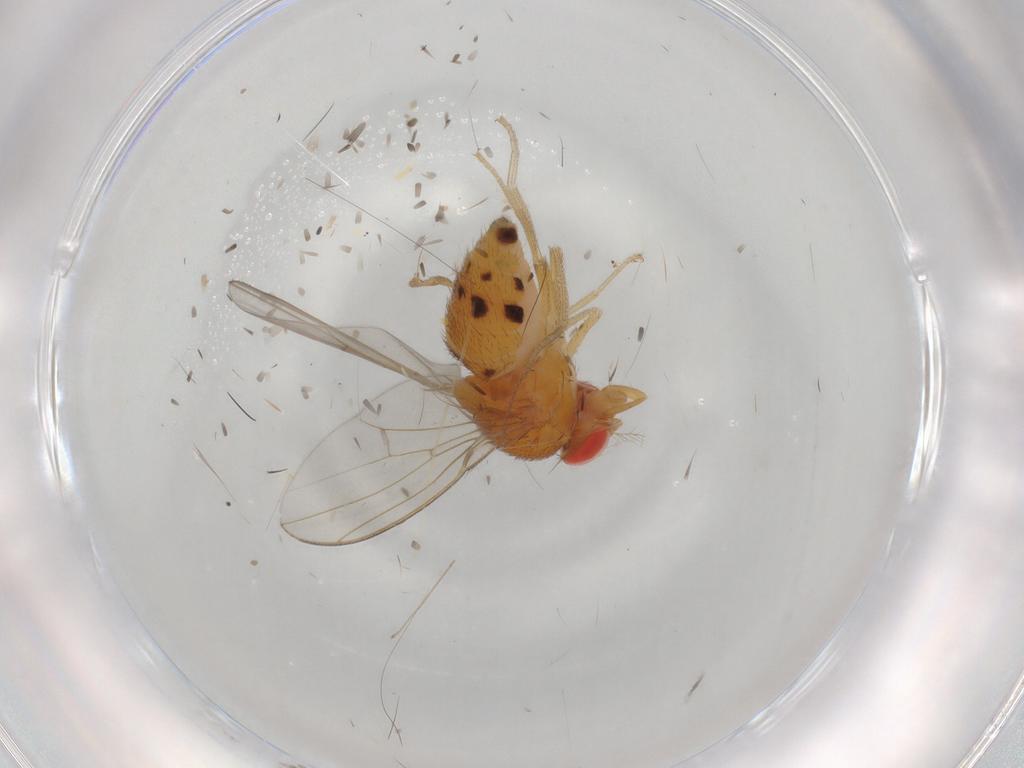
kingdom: Animalia
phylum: Arthropoda
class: Insecta
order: Diptera
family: Drosophilidae
